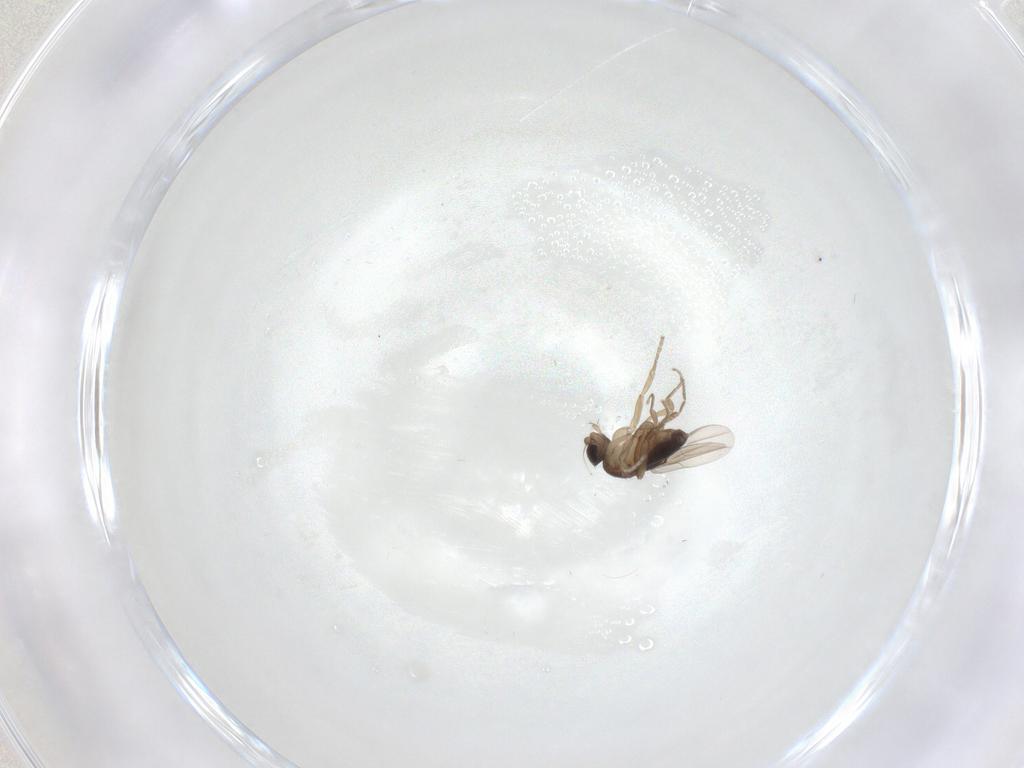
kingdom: Animalia
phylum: Arthropoda
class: Insecta
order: Diptera
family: Phoridae
